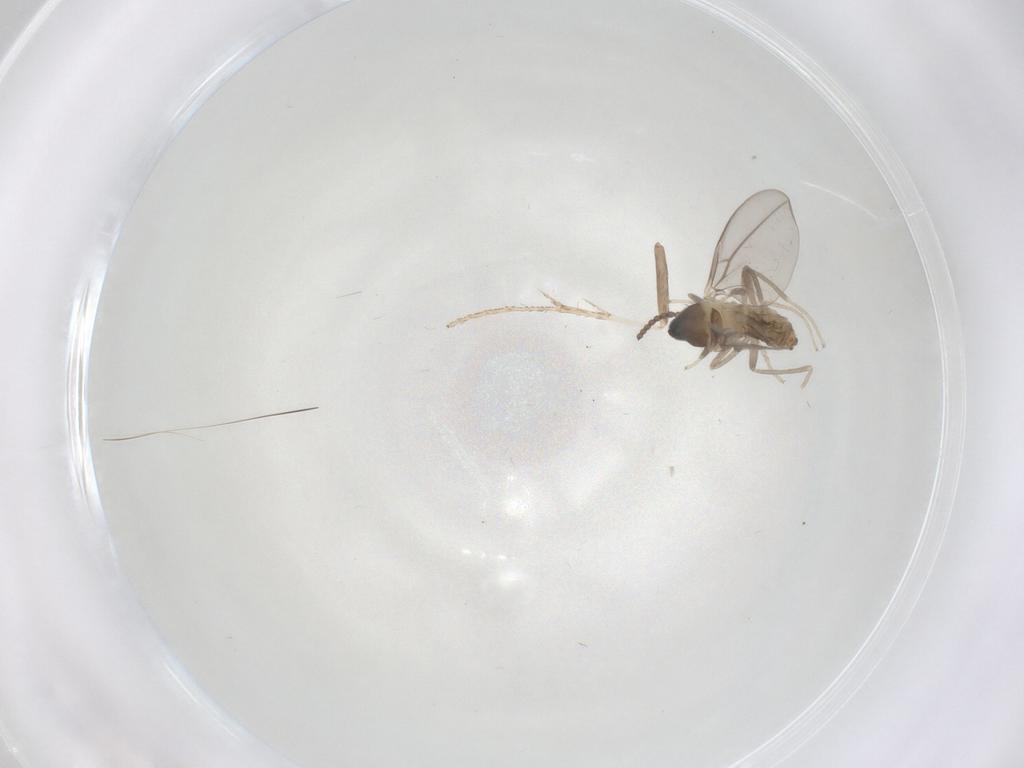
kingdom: Animalia
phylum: Arthropoda
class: Insecta
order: Diptera
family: Cecidomyiidae
